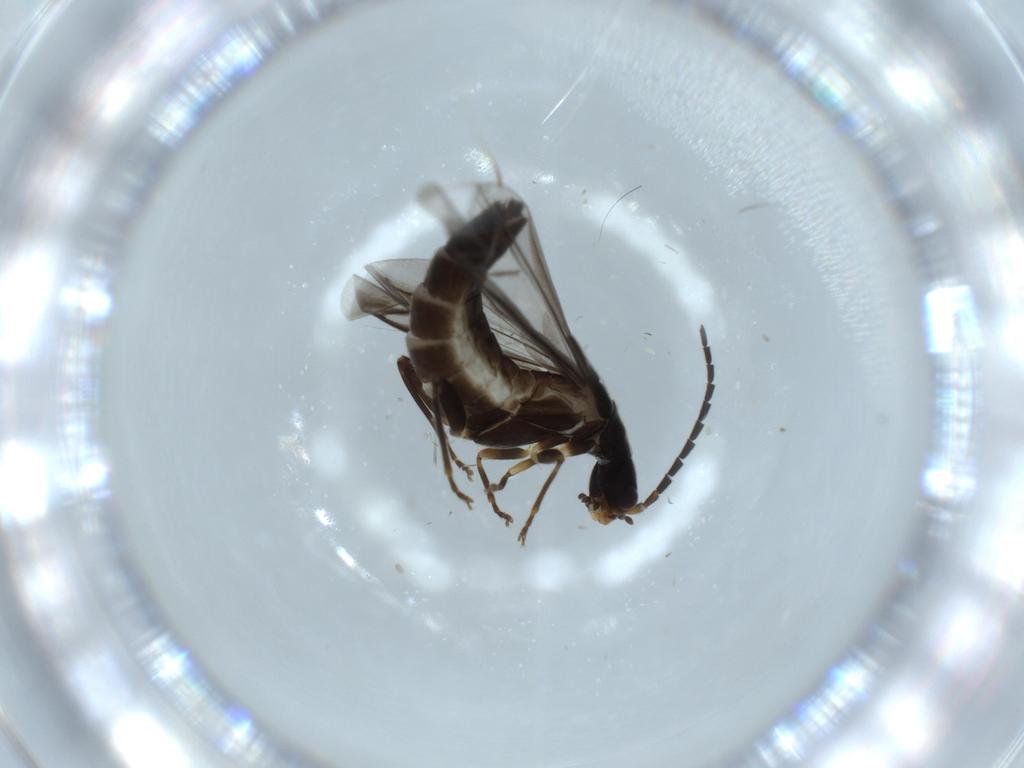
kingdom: Animalia
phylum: Arthropoda
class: Insecta
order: Coleoptera
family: Cantharidae
